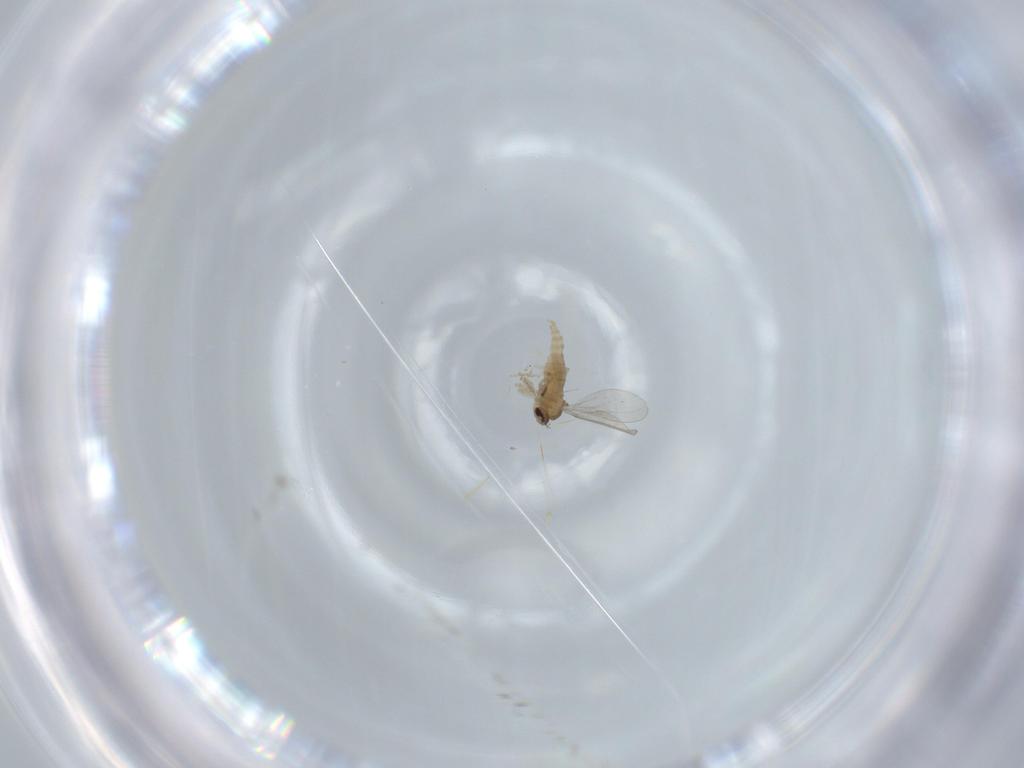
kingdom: Animalia
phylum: Arthropoda
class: Insecta
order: Diptera
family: Cecidomyiidae
